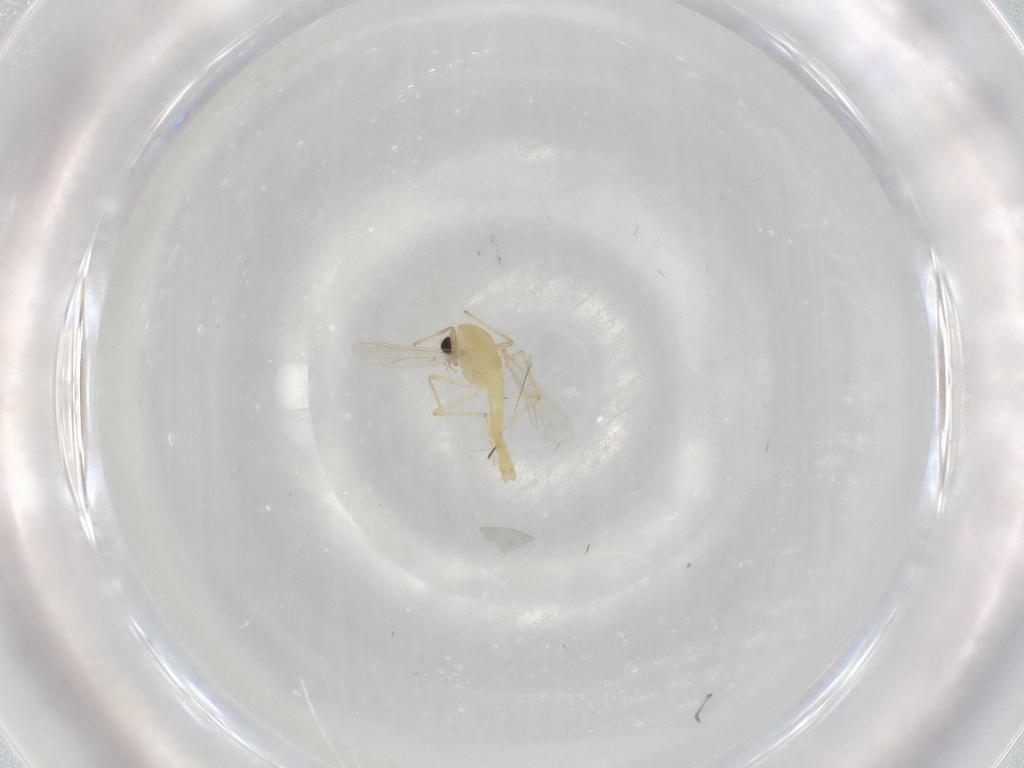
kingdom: Animalia
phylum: Arthropoda
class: Insecta
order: Diptera
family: Chironomidae
